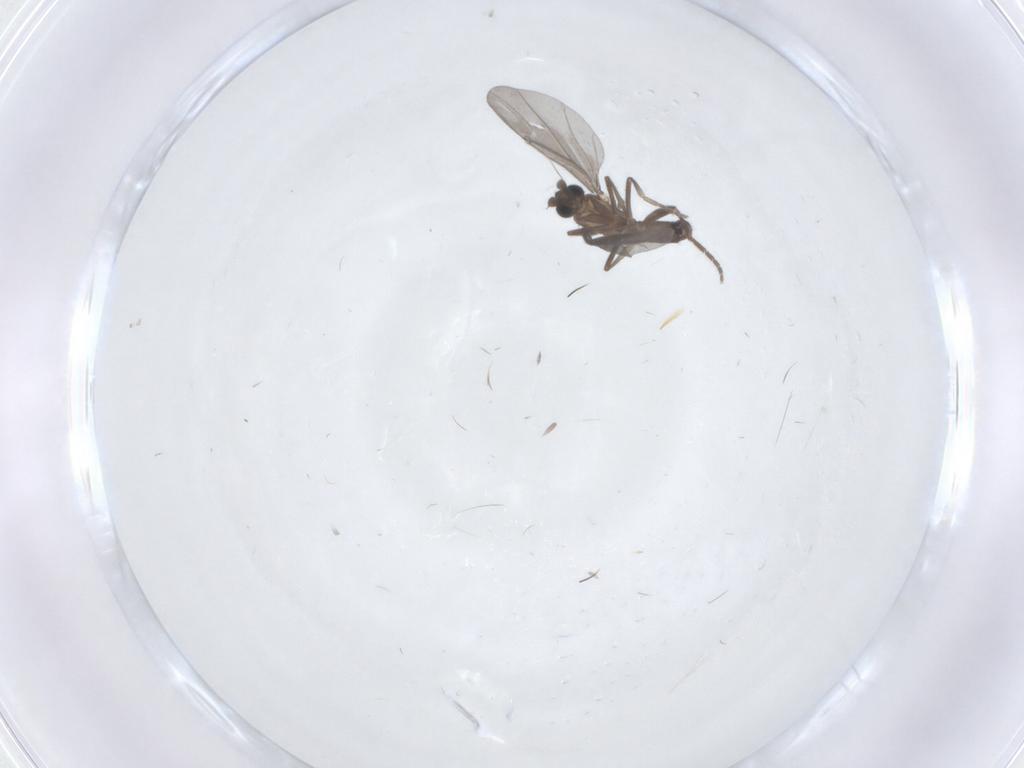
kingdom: Animalia
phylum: Arthropoda
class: Insecta
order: Diptera
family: Phoridae
